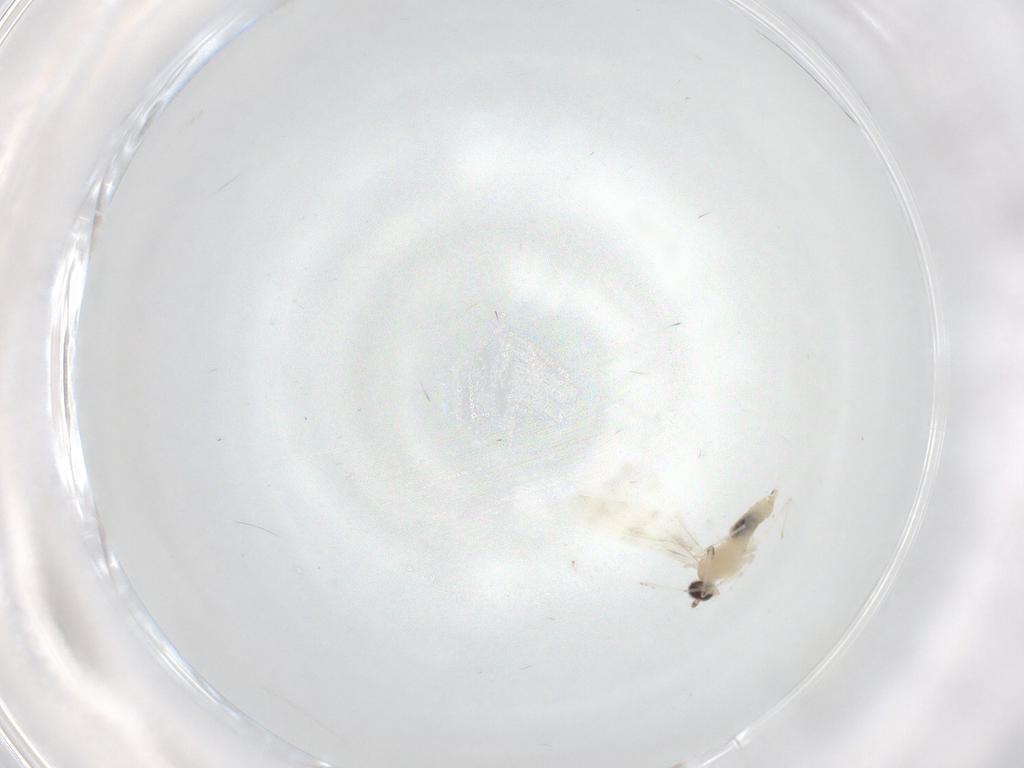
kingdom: Animalia
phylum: Arthropoda
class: Insecta
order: Diptera
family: Cecidomyiidae
